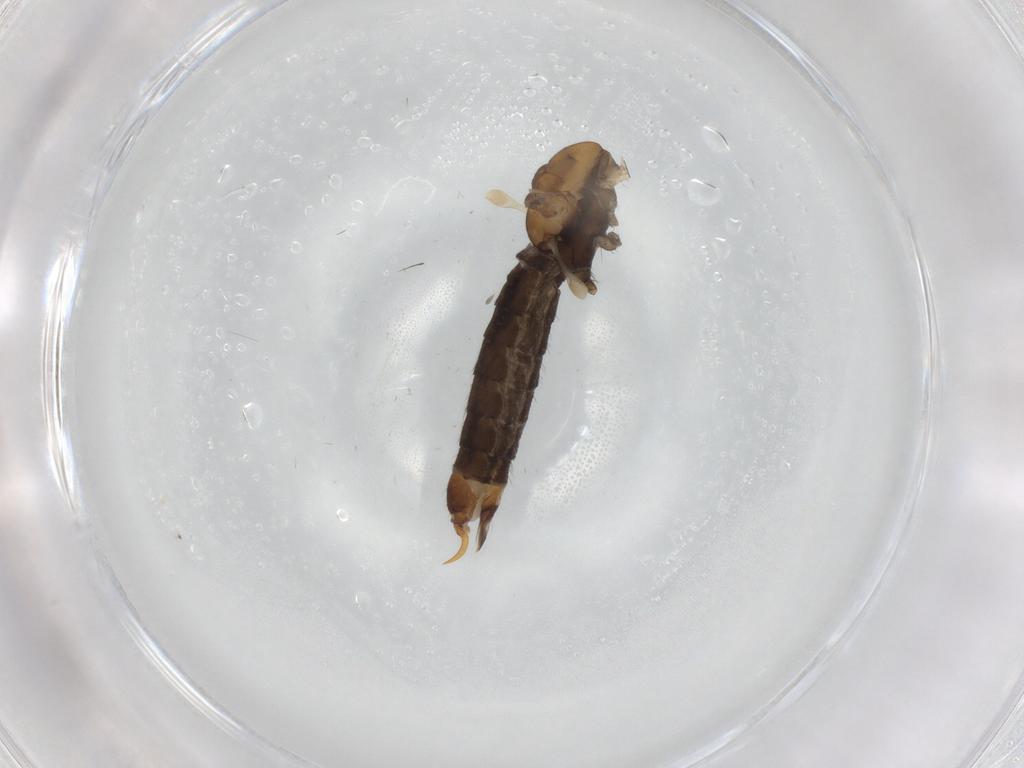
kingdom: Animalia
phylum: Arthropoda
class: Insecta
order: Diptera
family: Limoniidae
